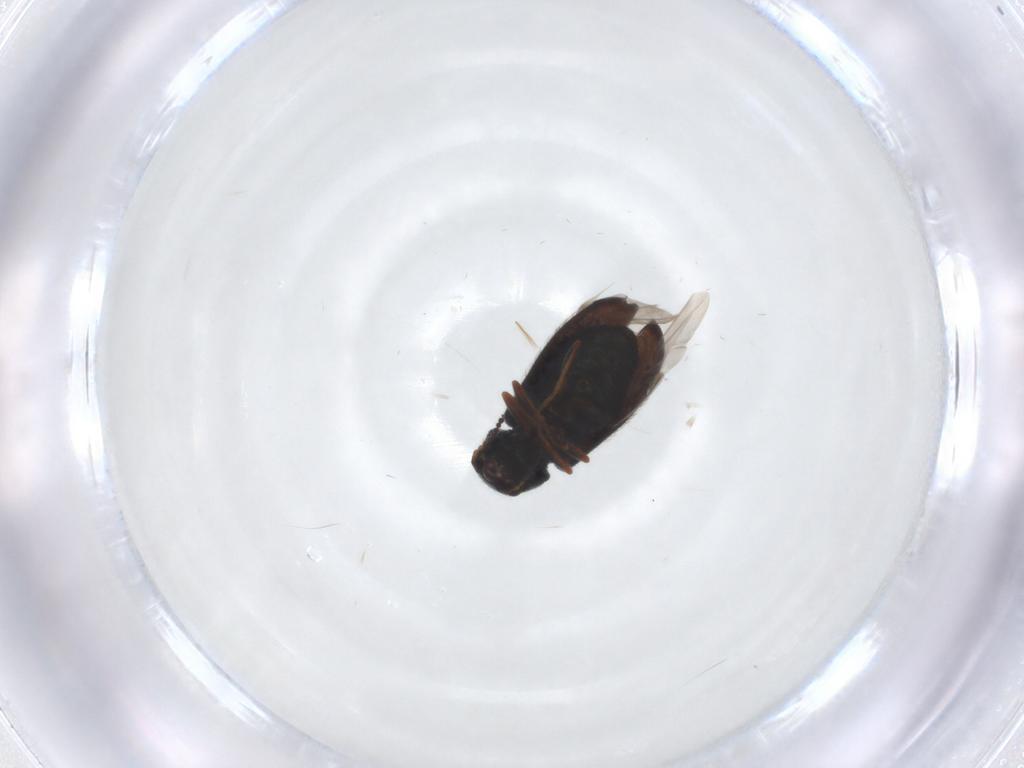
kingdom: Animalia
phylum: Arthropoda
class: Insecta
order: Coleoptera
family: Melyridae
